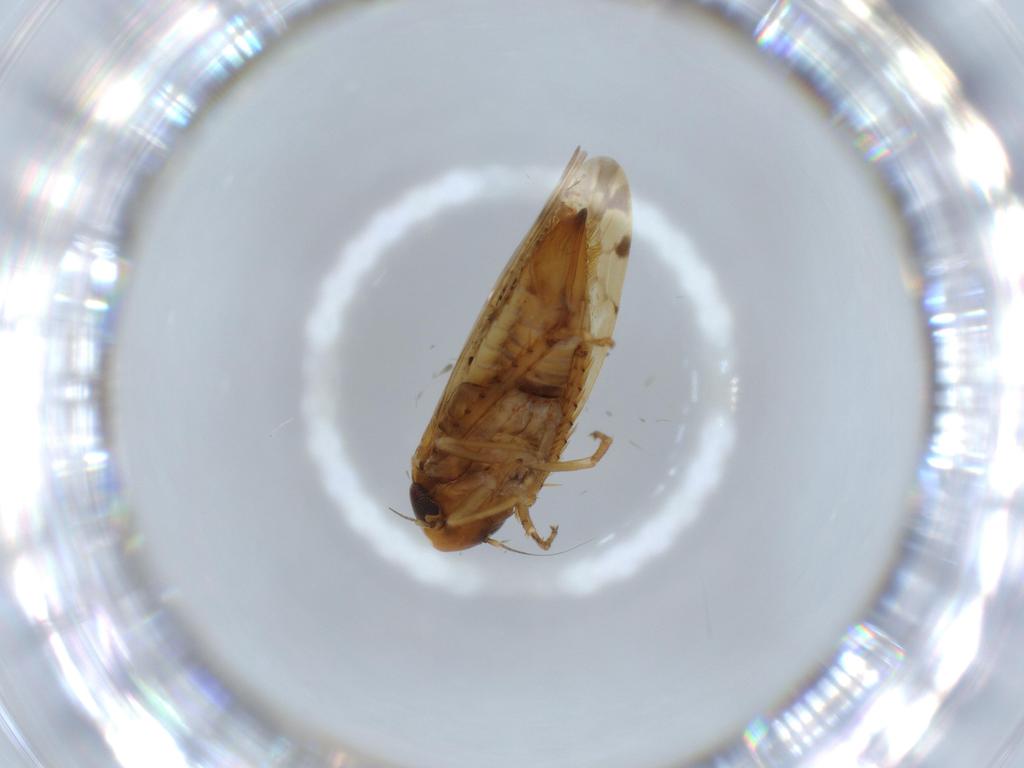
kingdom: Animalia
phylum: Arthropoda
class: Insecta
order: Hemiptera
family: Cicadellidae
